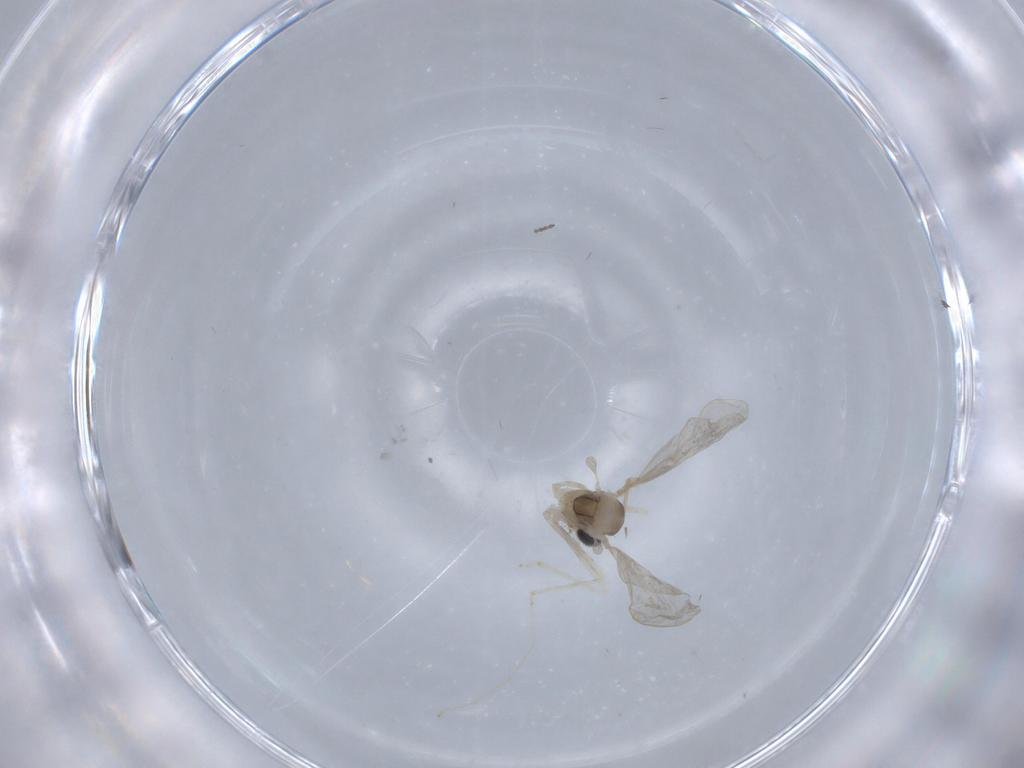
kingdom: Animalia
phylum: Arthropoda
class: Insecta
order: Diptera
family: Cecidomyiidae
